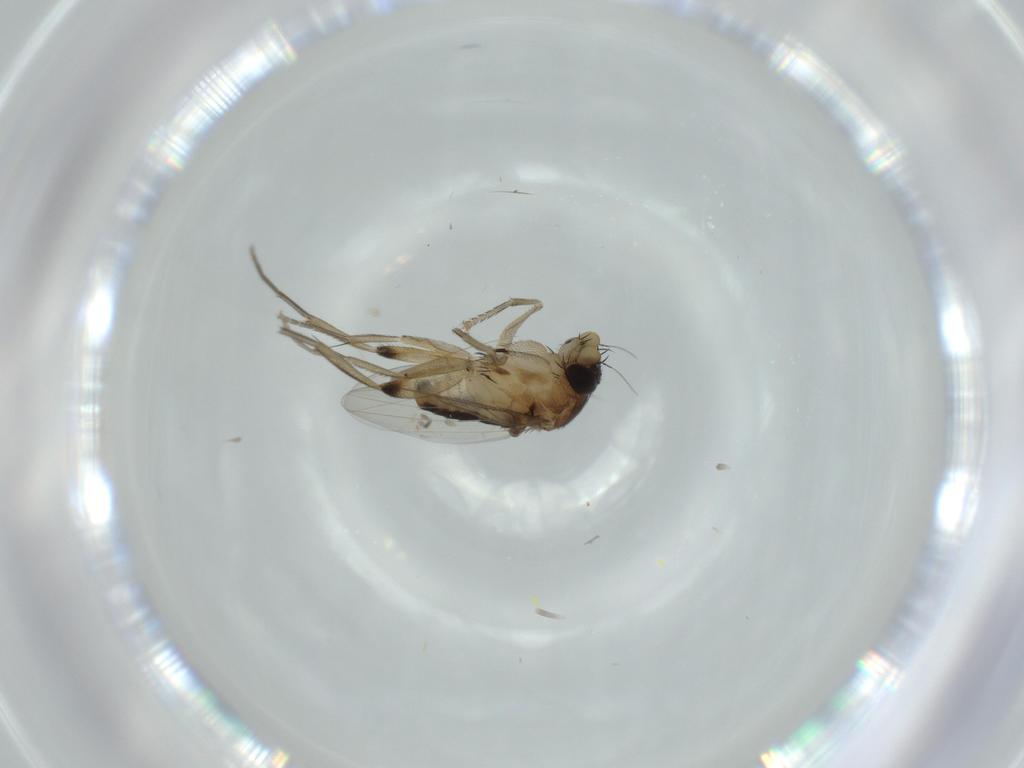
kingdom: Animalia
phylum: Arthropoda
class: Insecta
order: Diptera
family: Phoridae
